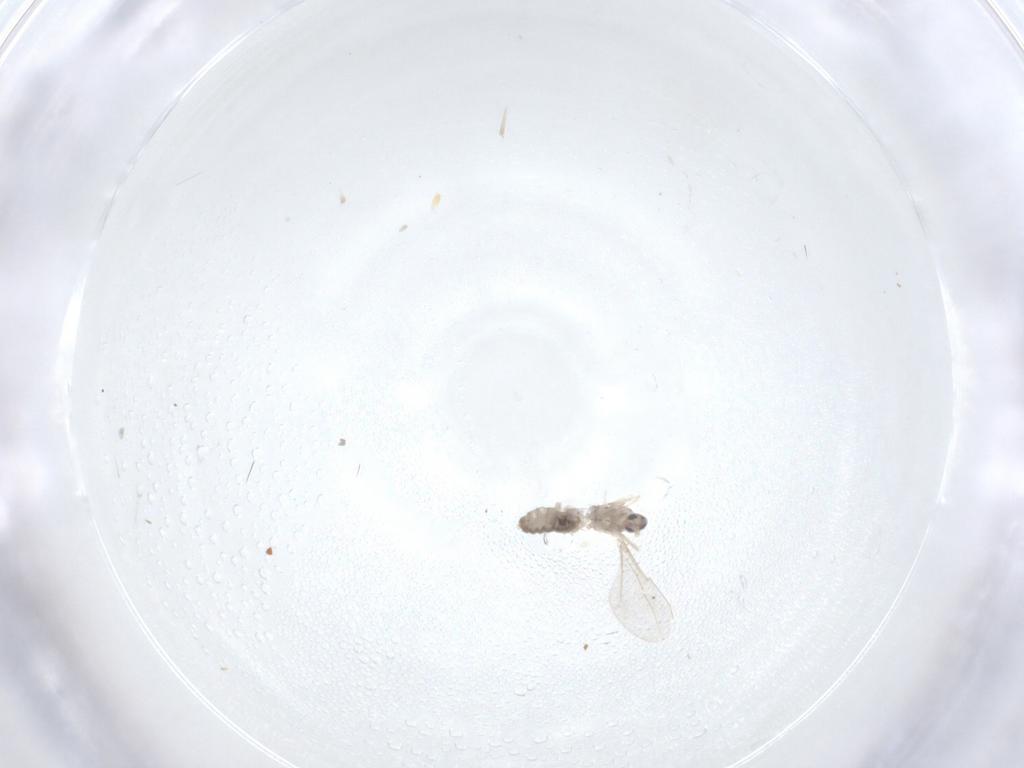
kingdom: Animalia
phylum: Arthropoda
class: Insecta
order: Diptera
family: Cecidomyiidae
